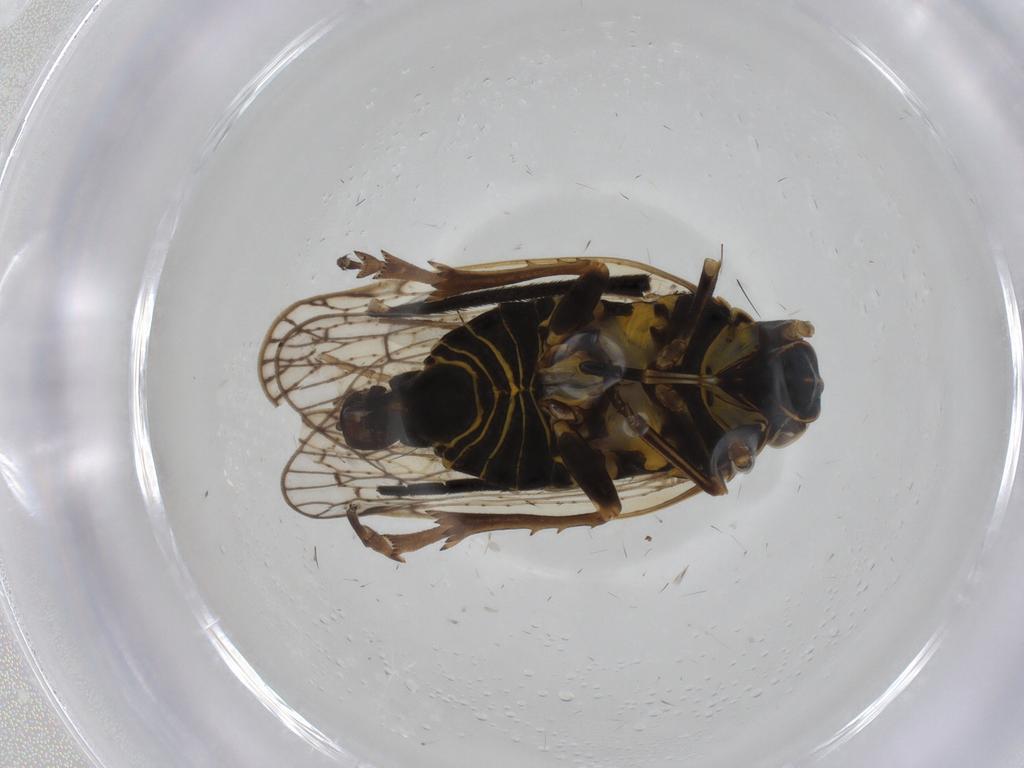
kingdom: Animalia
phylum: Arthropoda
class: Insecta
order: Hemiptera
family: Cixiidae
